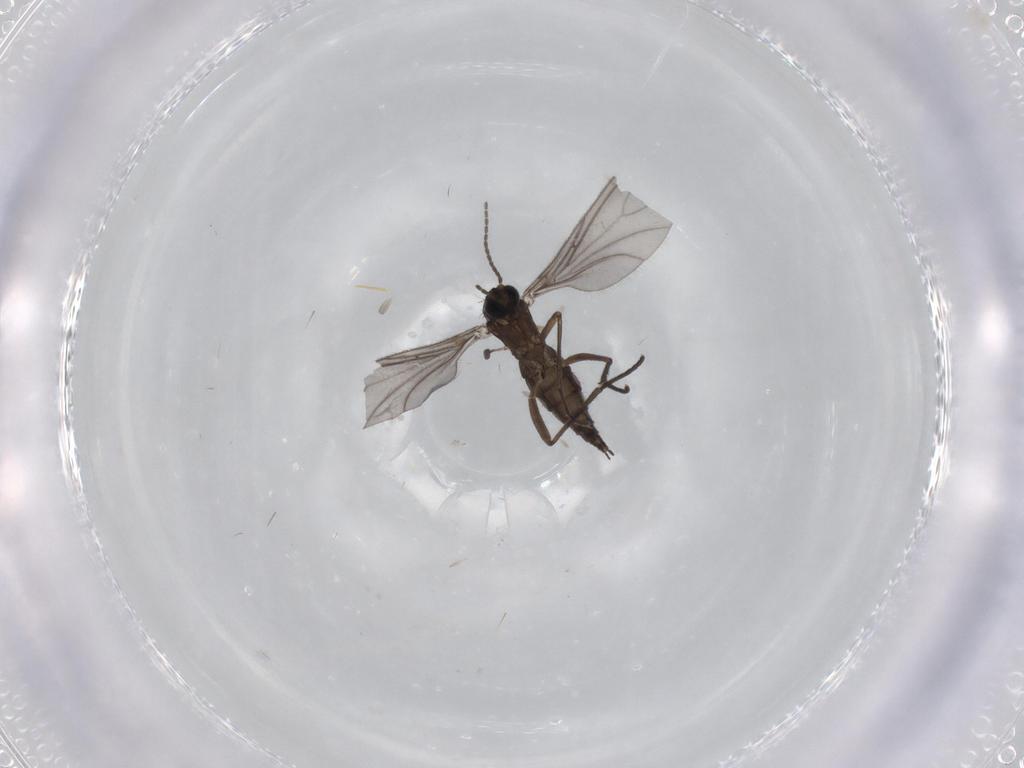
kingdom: Animalia
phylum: Arthropoda
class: Insecta
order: Diptera
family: Sciaridae
